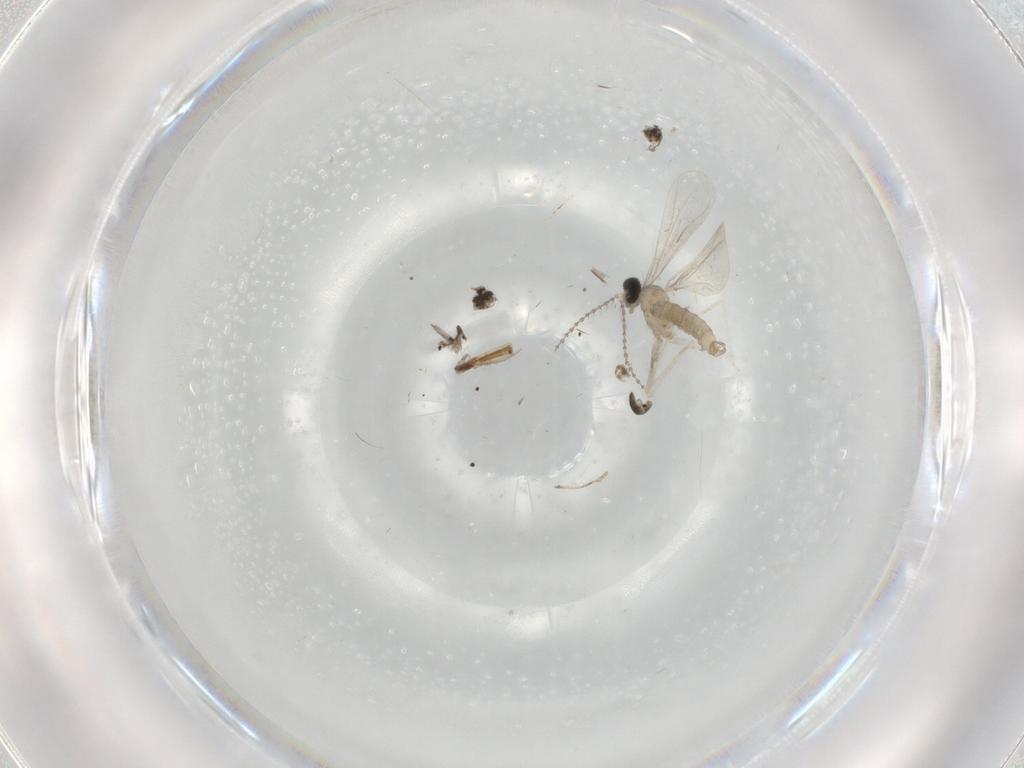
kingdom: Animalia
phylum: Arthropoda
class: Insecta
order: Diptera
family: Cecidomyiidae
